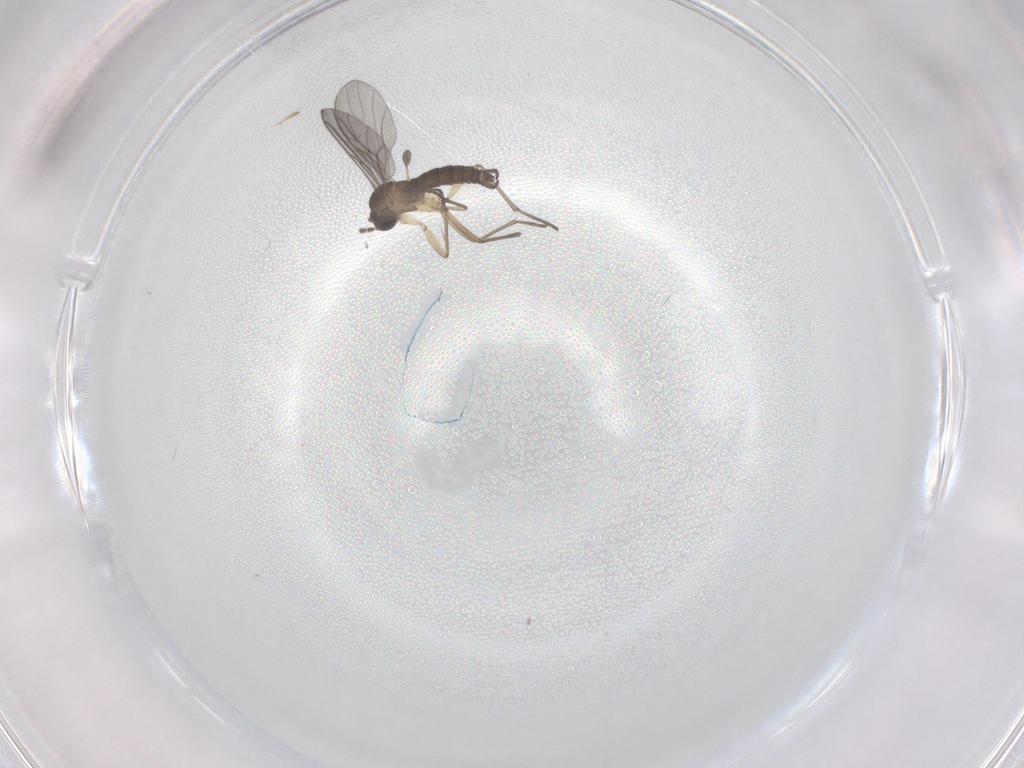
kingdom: Animalia
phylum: Arthropoda
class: Insecta
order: Diptera
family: Sciaridae
